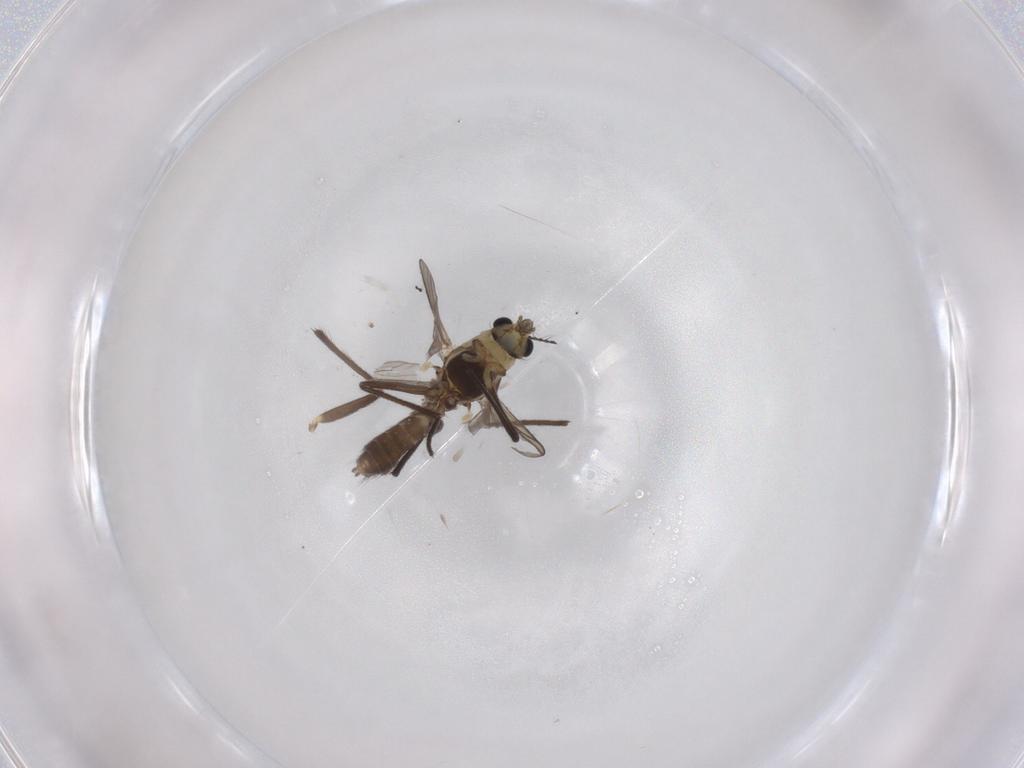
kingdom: Animalia
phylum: Arthropoda
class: Insecta
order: Diptera
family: Chironomidae
